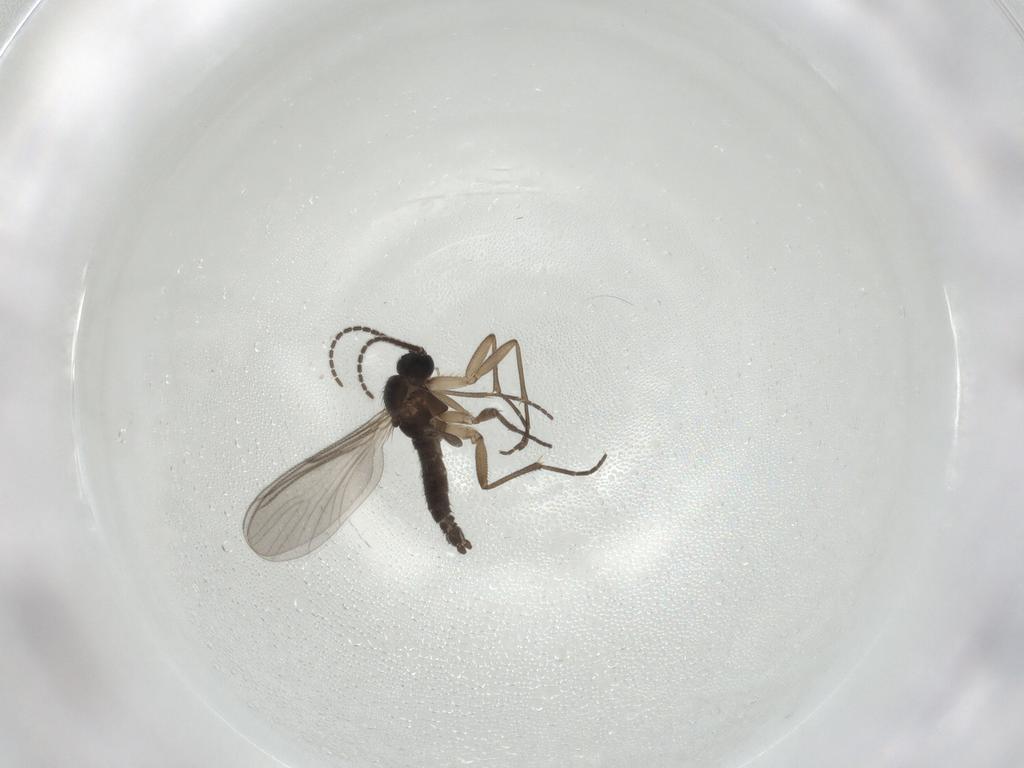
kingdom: Animalia
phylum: Arthropoda
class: Insecta
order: Diptera
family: Sciaridae
